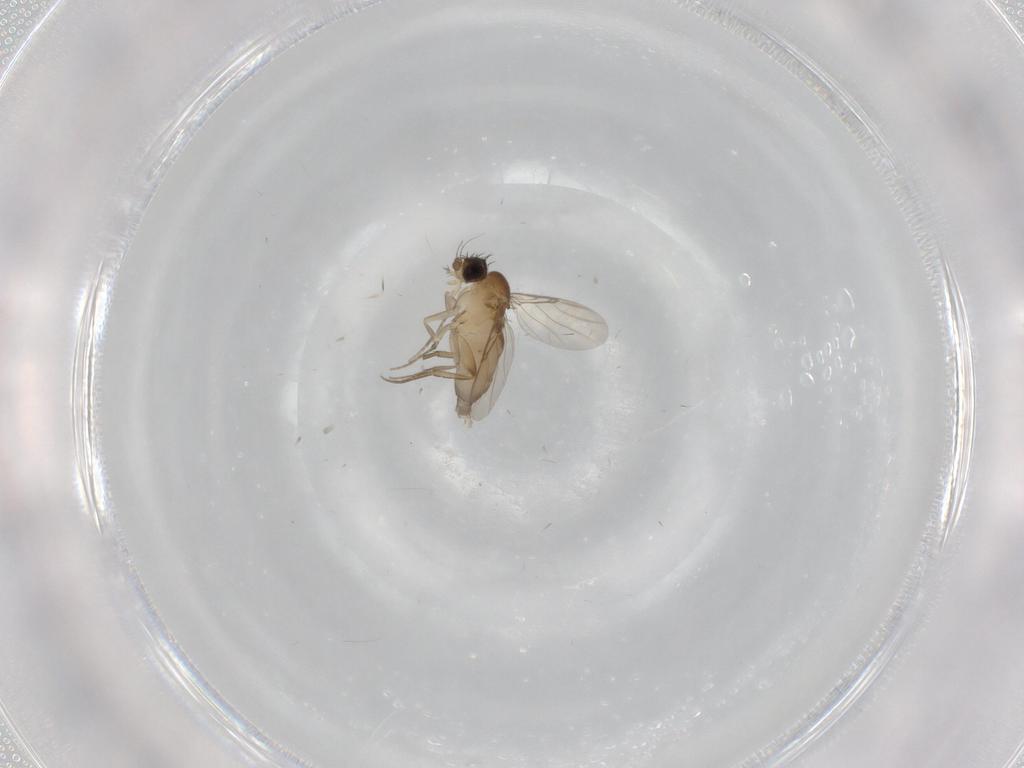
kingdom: Animalia
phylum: Arthropoda
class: Insecta
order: Diptera
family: Phoridae
